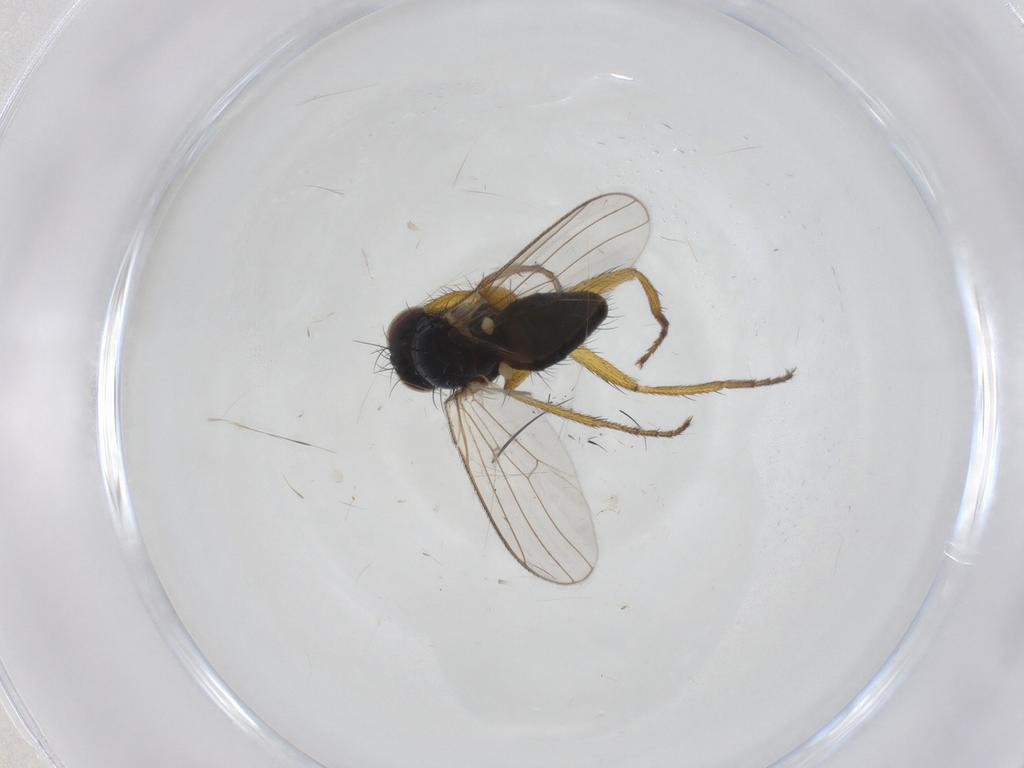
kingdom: Animalia
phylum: Arthropoda
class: Insecta
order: Diptera
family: Muscidae
